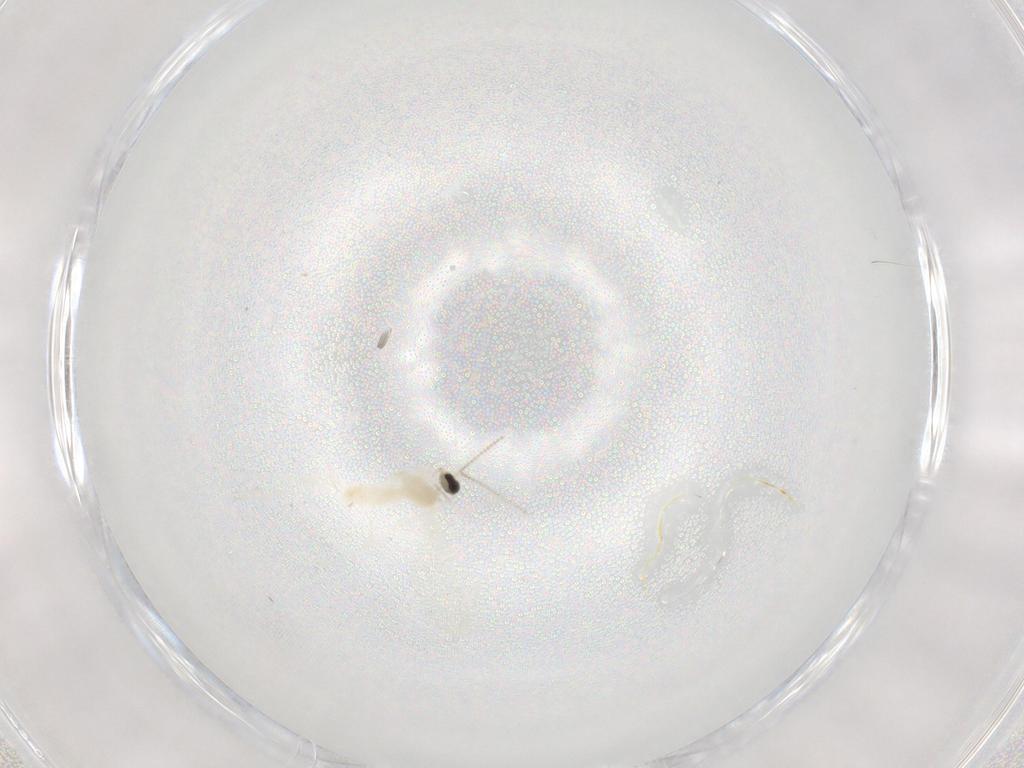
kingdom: Animalia
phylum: Arthropoda
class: Insecta
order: Diptera
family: Cecidomyiidae
